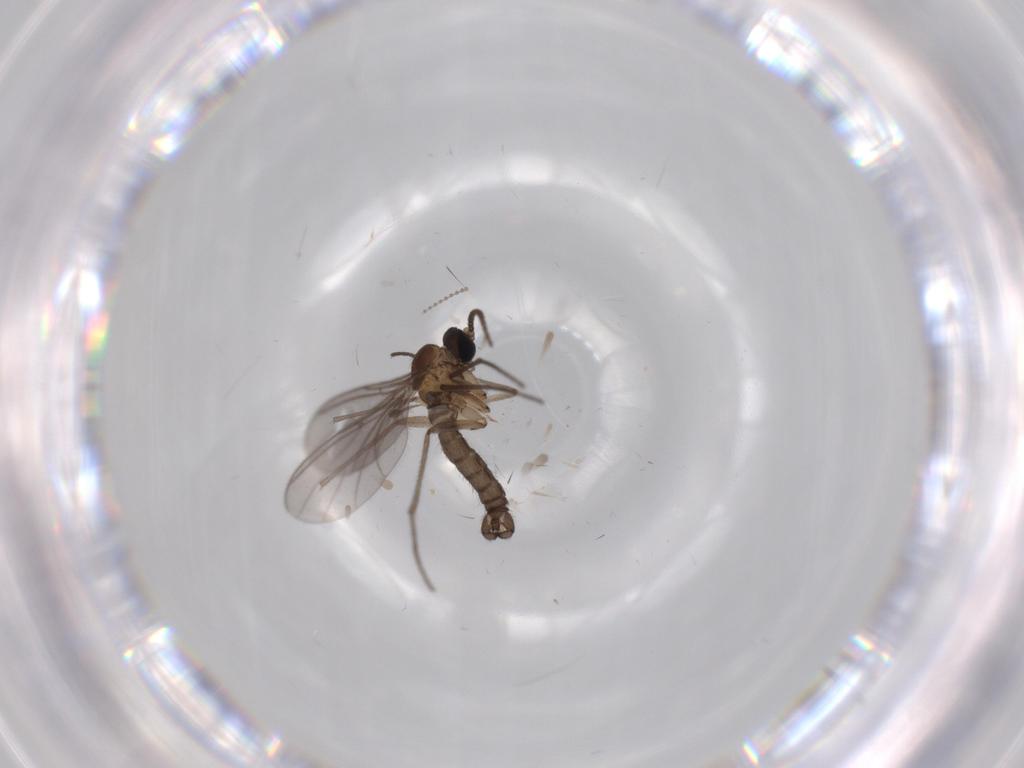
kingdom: Animalia
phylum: Arthropoda
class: Insecta
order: Diptera
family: Sciaridae
